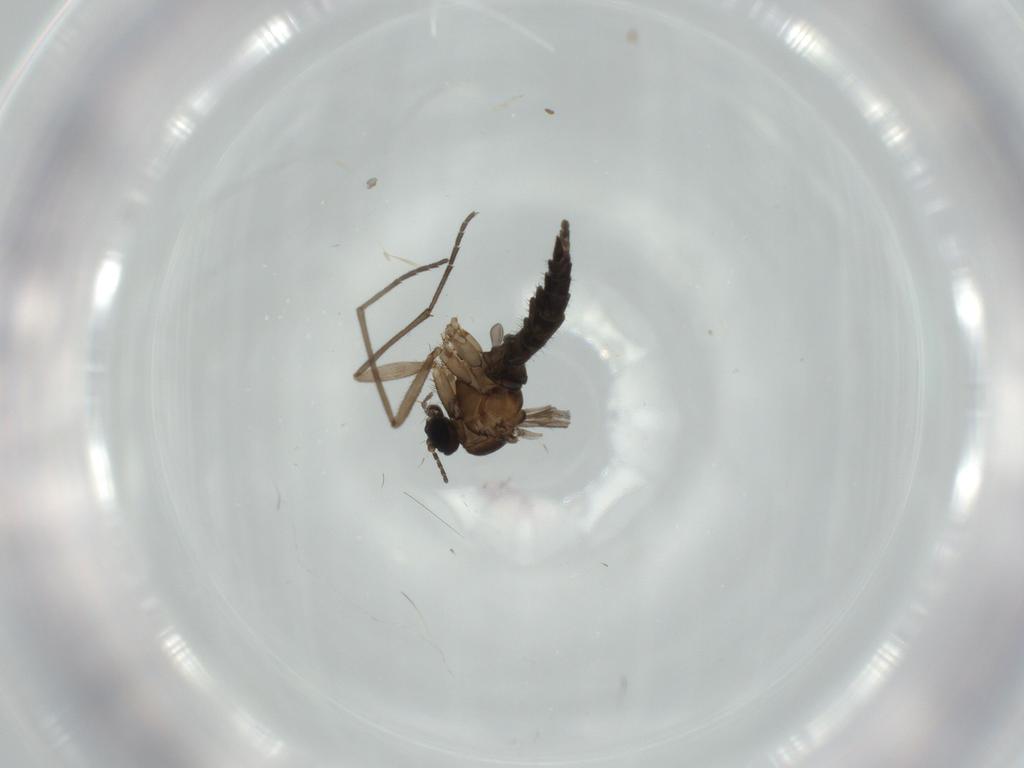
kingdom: Animalia
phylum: Arthropoda
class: Insecta
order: Diptera
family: Sciaridae
